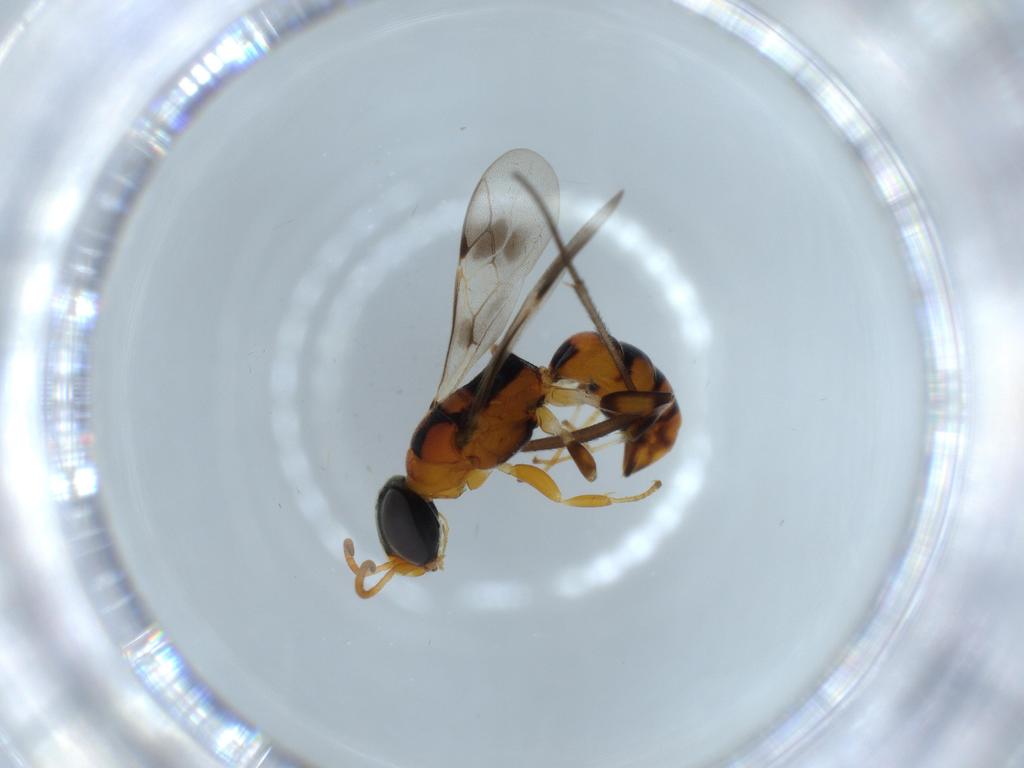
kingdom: Animalia
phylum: Arthropoda
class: Insecta
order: Hymenoptera
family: Crabronidae
